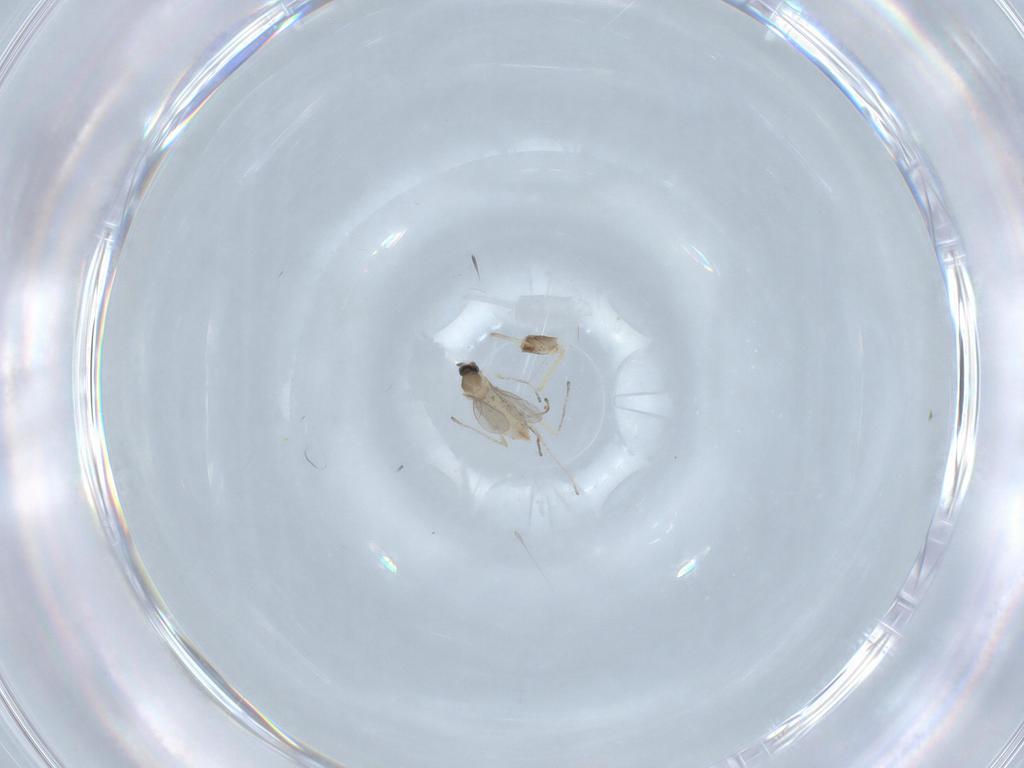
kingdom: Animalia
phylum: Arthropoda
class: Insecta
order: Diptera
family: Cecidomyiidae
